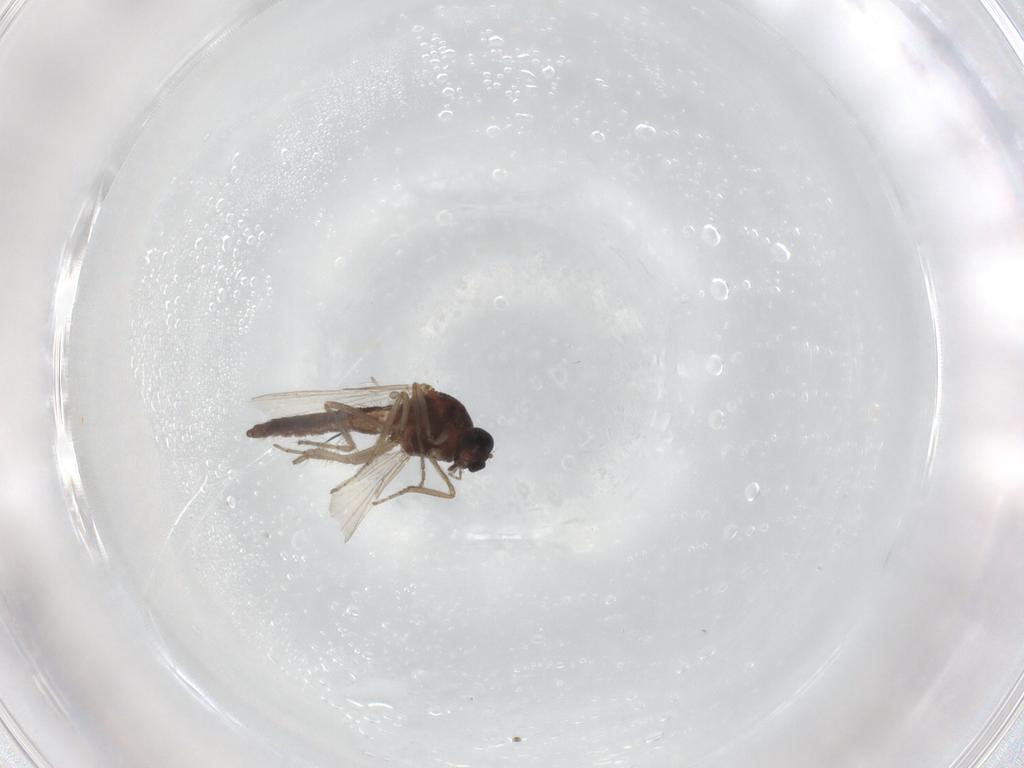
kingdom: Animalia
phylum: Arthropoda
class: Insecta
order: Diptera
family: Ceratopogonidae
